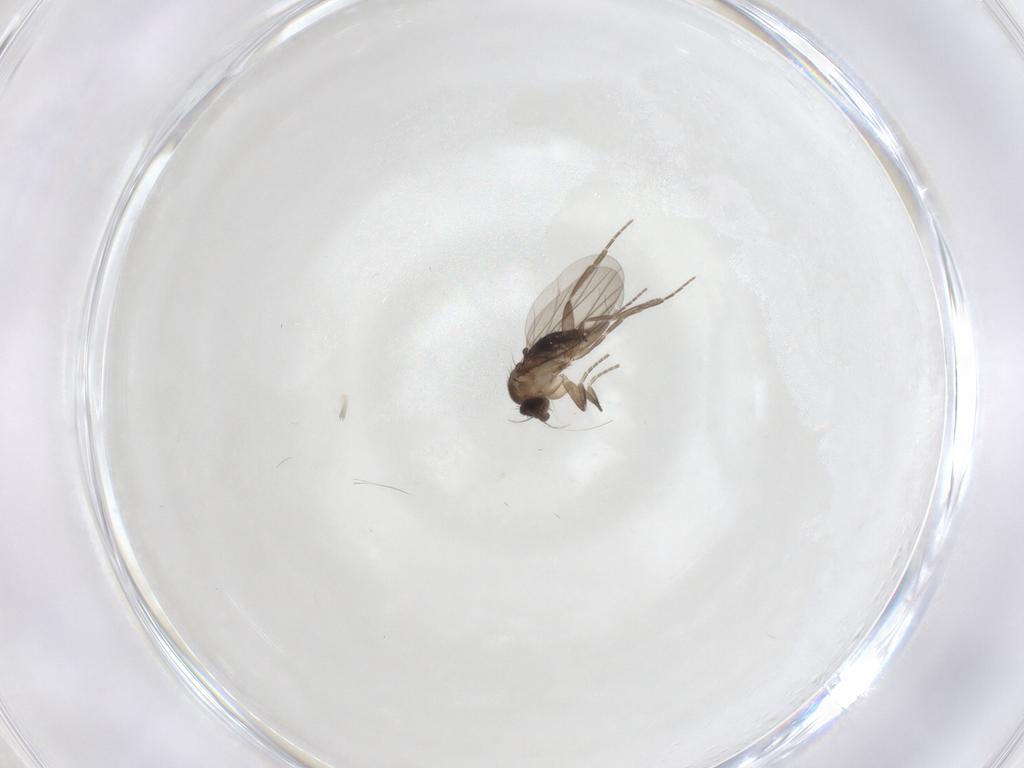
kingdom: Animalia
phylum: Arthropoda
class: Insecta
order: Diptera
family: Phoridae
